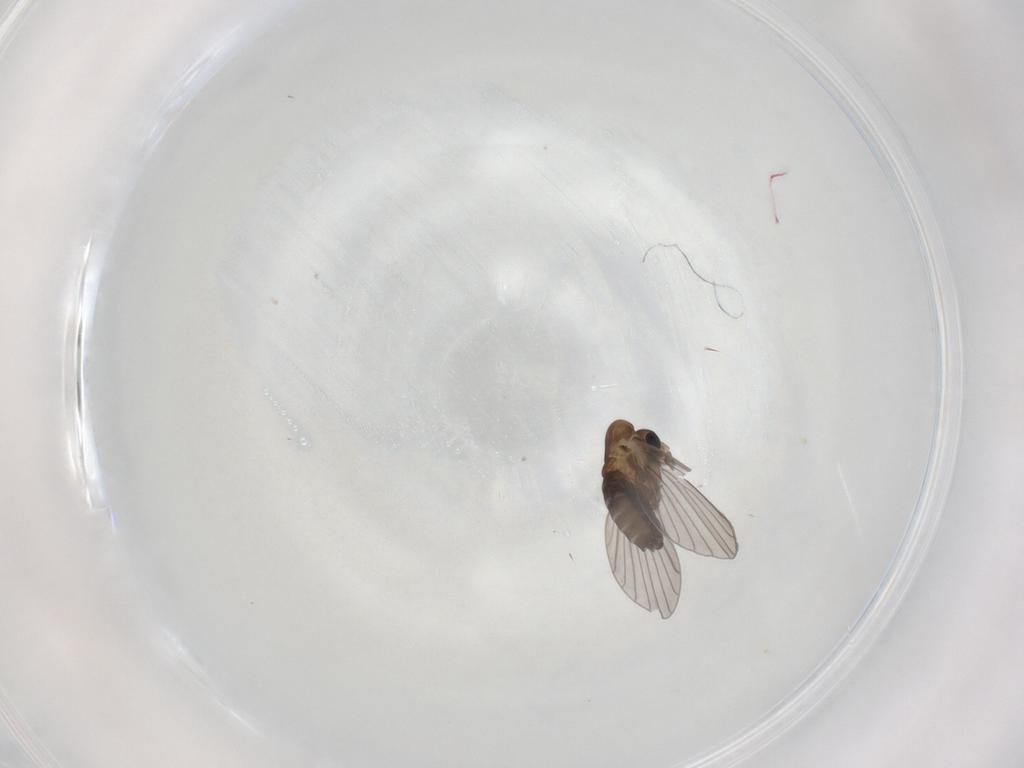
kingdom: Animalia
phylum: Arthropoda
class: Insecta
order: Diptera
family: Psychodidae
